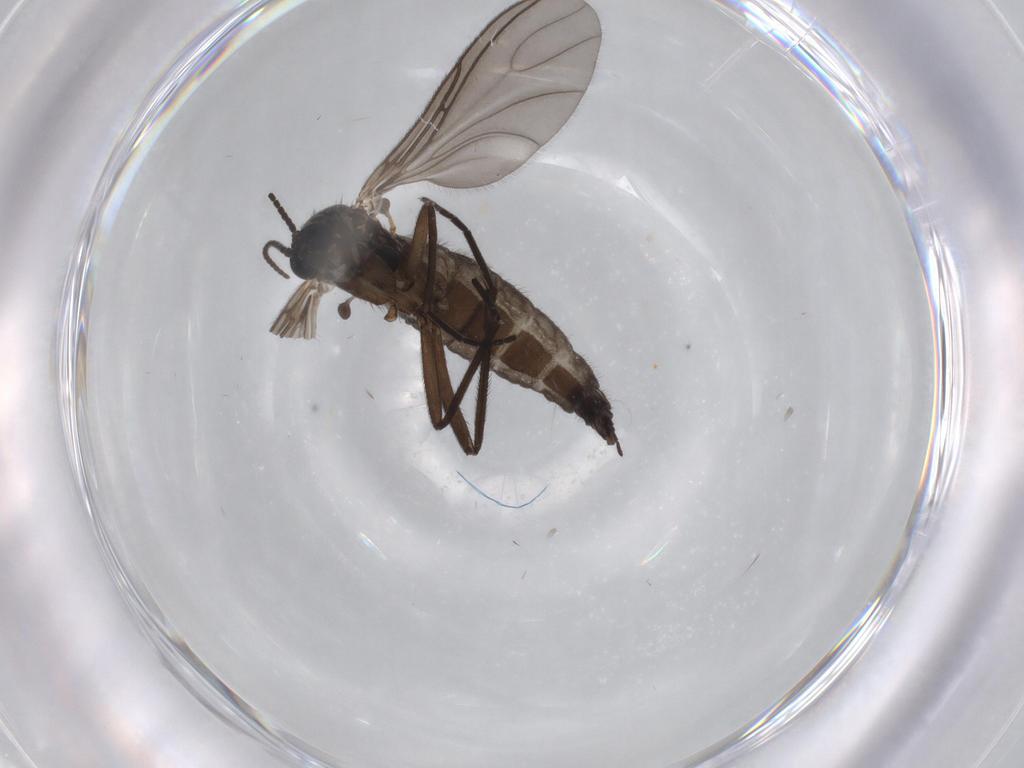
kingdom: Animalia
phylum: Arthropoda
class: Insecta
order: Diptera
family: Sciaridae
